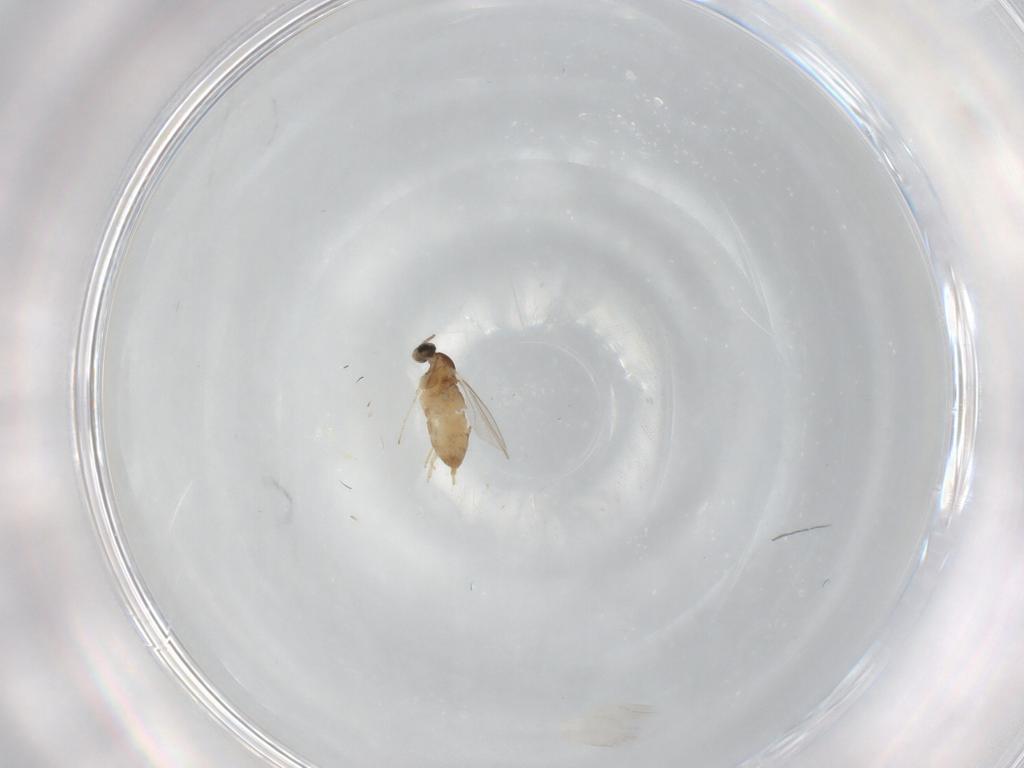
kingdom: Animalia
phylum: Arthropoda
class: Insecta
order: Diptera
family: Cecidomyiidae
